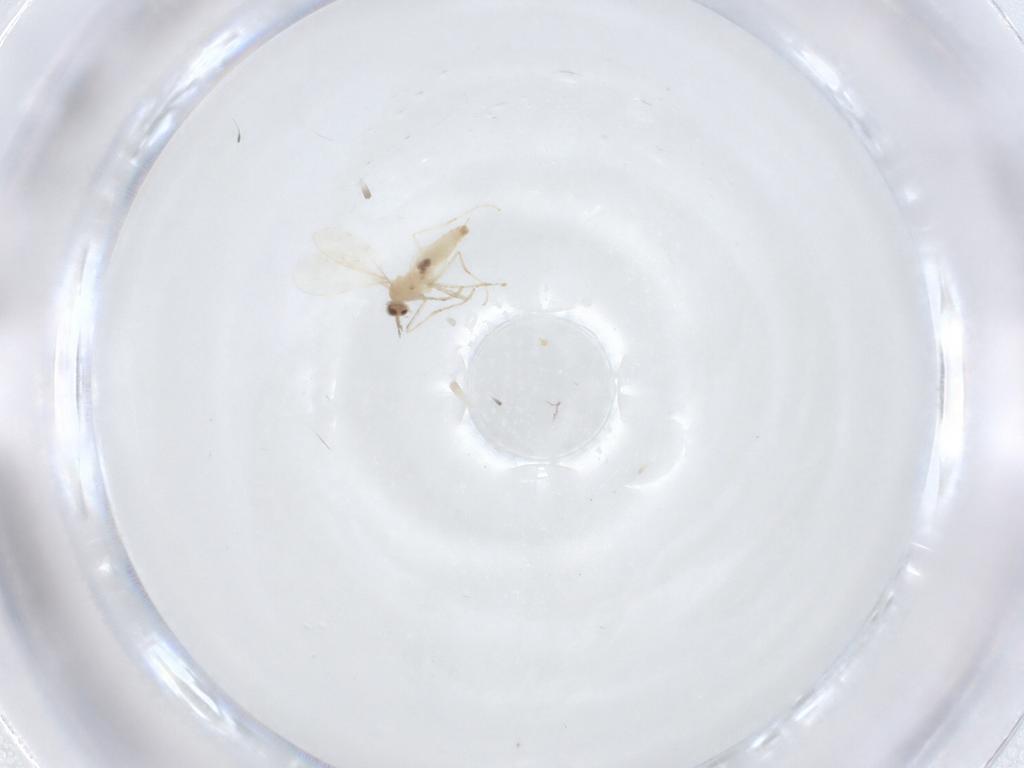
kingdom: Animalia
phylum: Arthropoda
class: Insecta
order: Diptera
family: Cecidomyiidae
